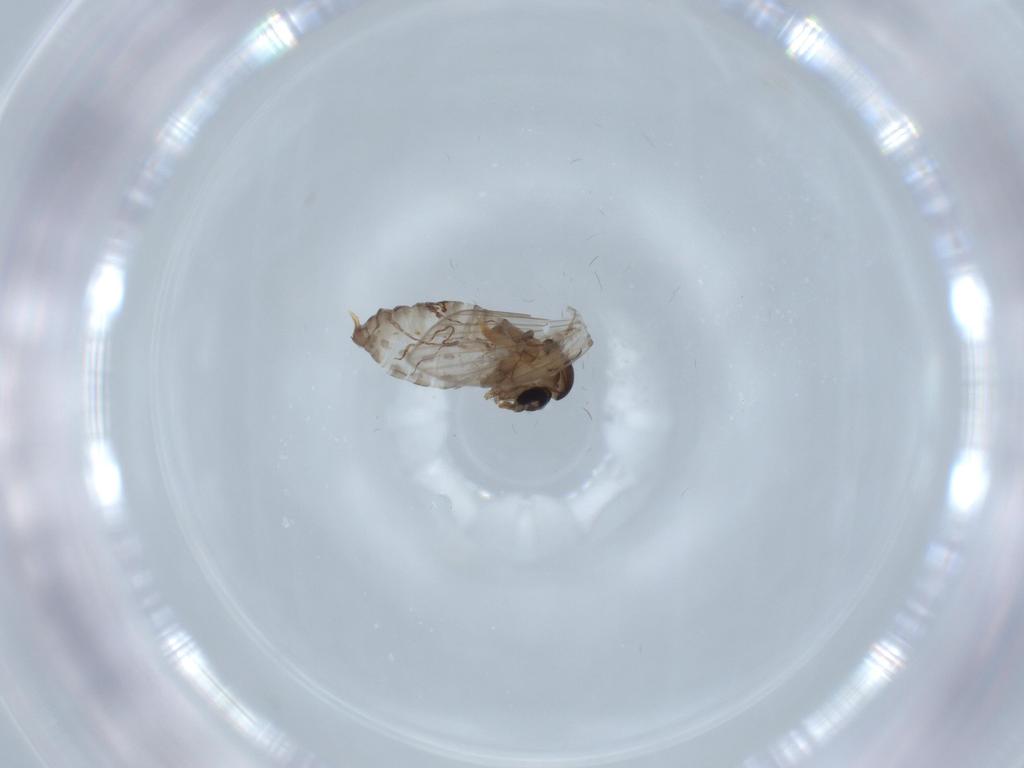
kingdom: Animalia
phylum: Arthropoda
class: Insecta
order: Diptera
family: Psychodidae
